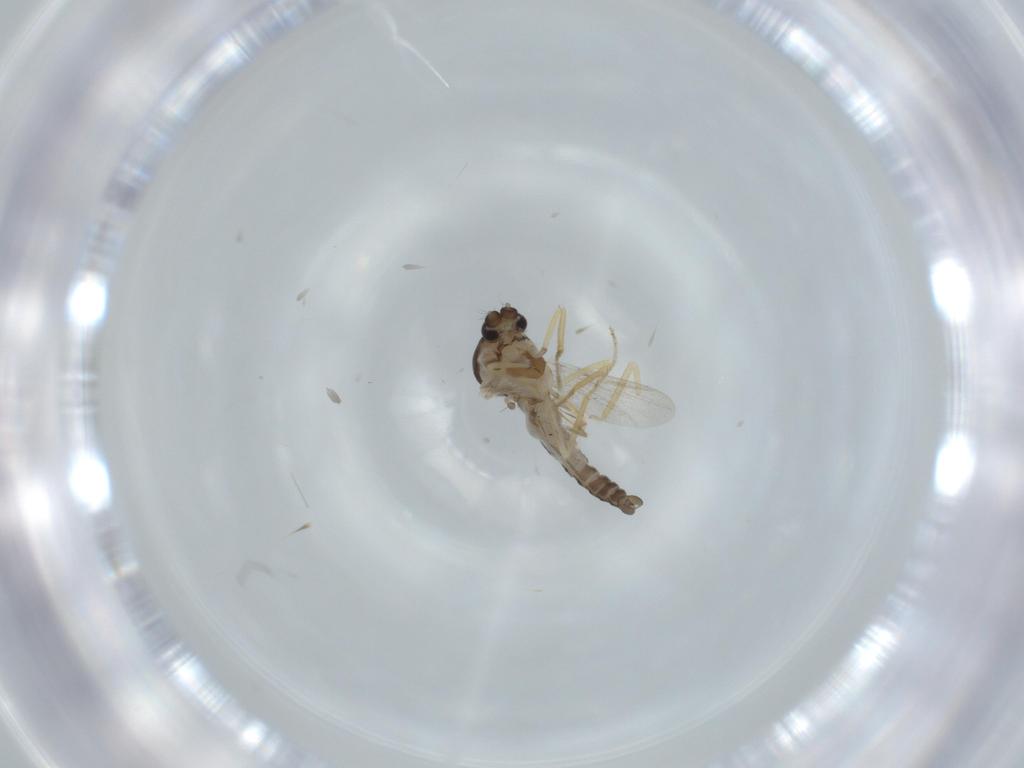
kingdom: Animalia
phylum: Arthropoda
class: Insecta
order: Diptera
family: Ceratopogonidae
